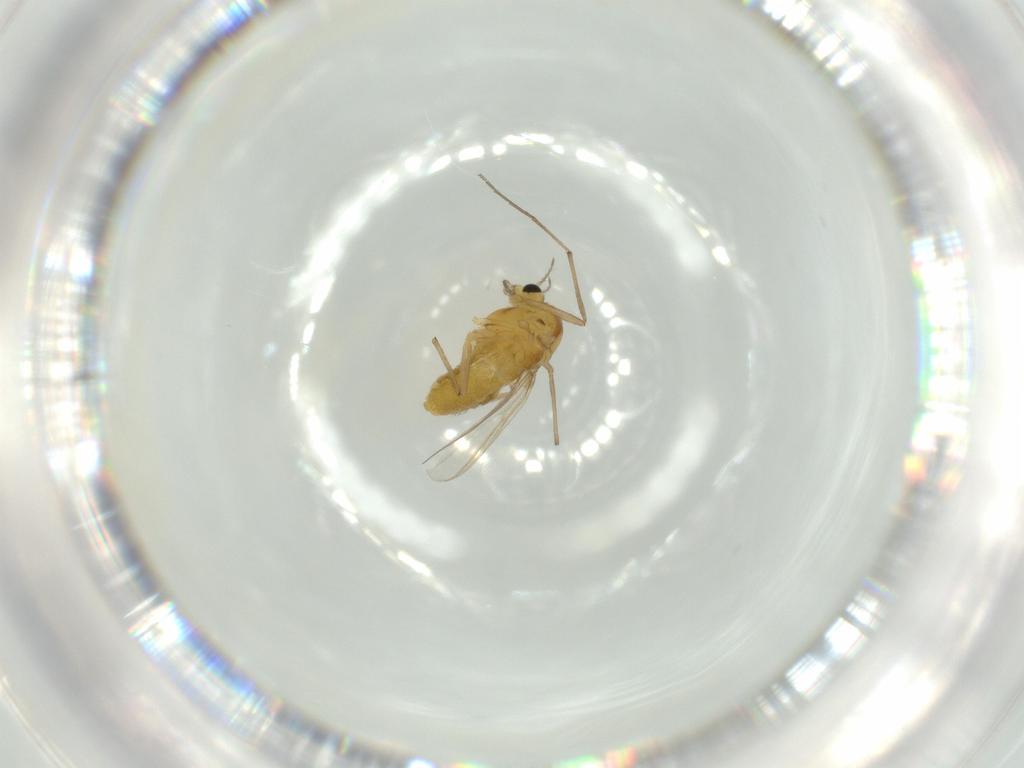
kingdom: Animalia
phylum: Arthropoda
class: Insecta
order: Diptera
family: Chironomidae
